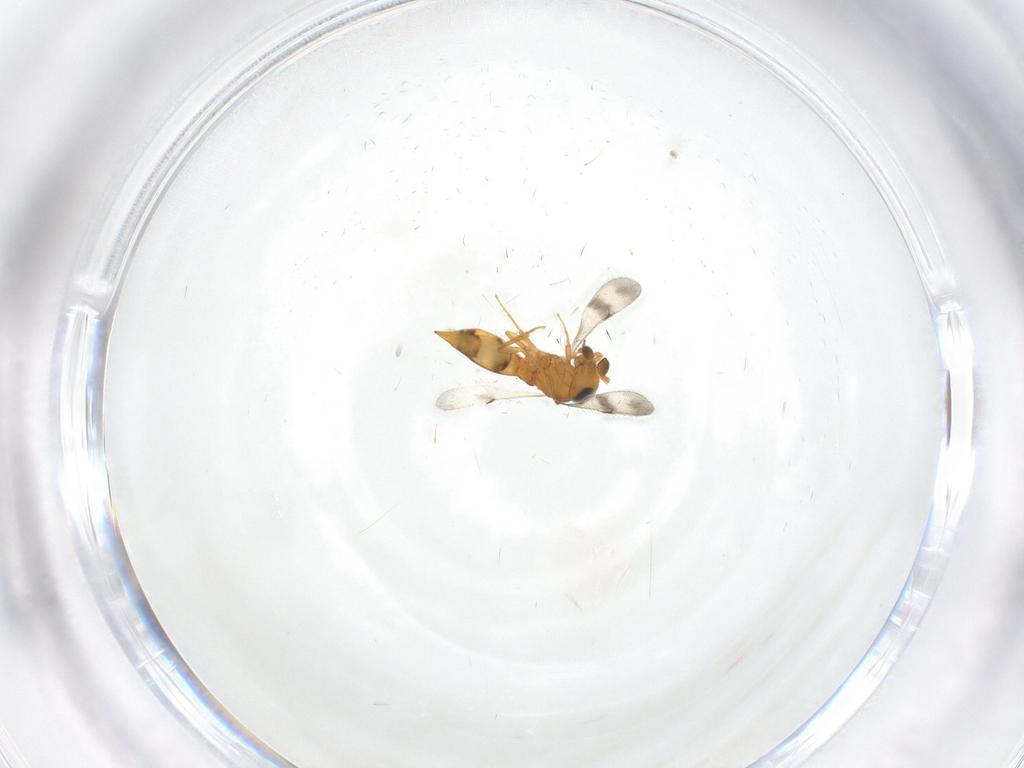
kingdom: Animalia
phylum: Arthropoda
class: Insecta
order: Hymenoptera
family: Scelionidae
